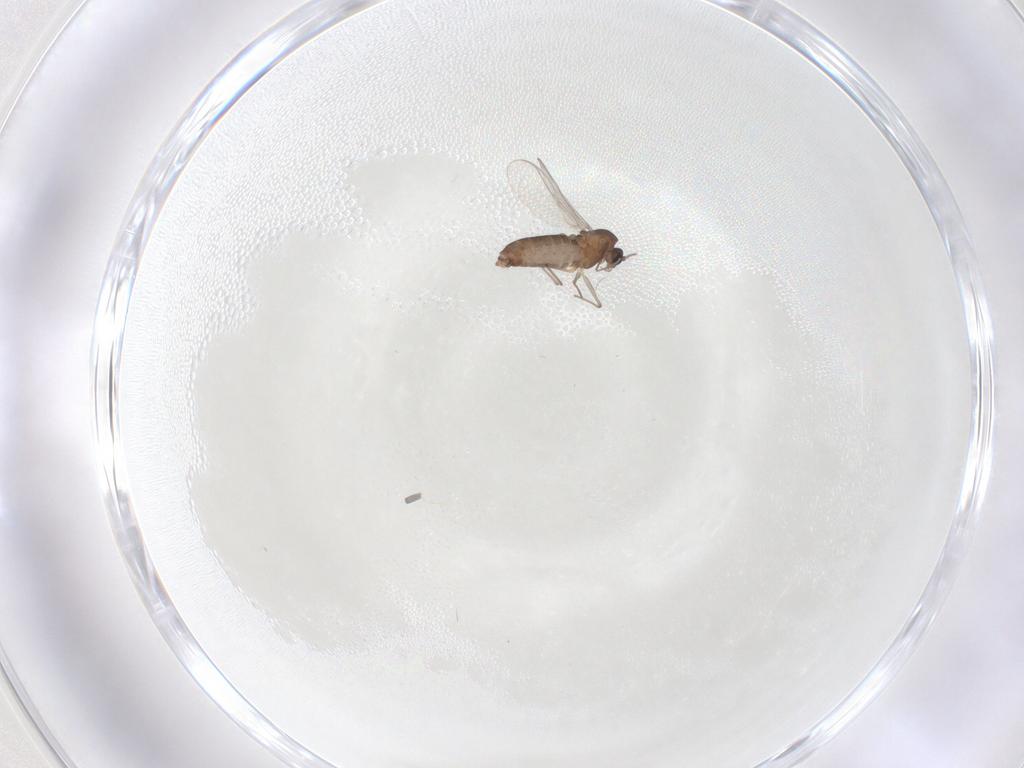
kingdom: Animalia
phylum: Arthropoda
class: Insecta
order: Diptera
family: Chironomidae
